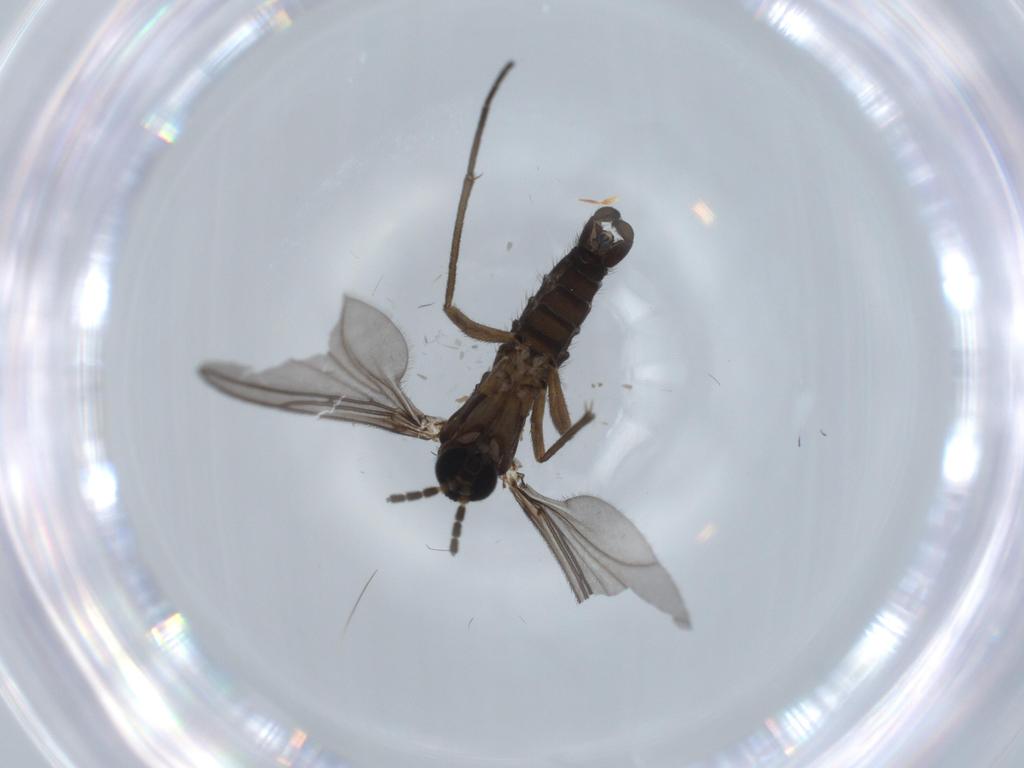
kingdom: Animalia
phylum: Arthropoda
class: Insecta
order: Diptera
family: Sciaridae
